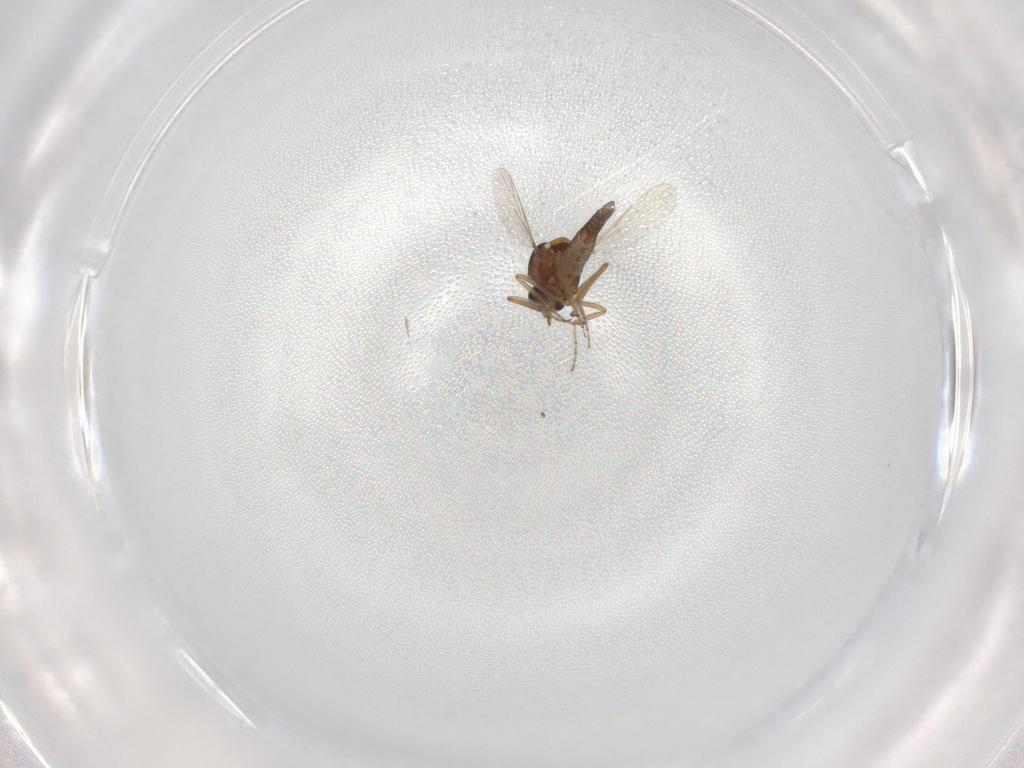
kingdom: Animalia
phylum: Arthropoda
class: Insecta
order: Diptera
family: Ceratopogonidae
